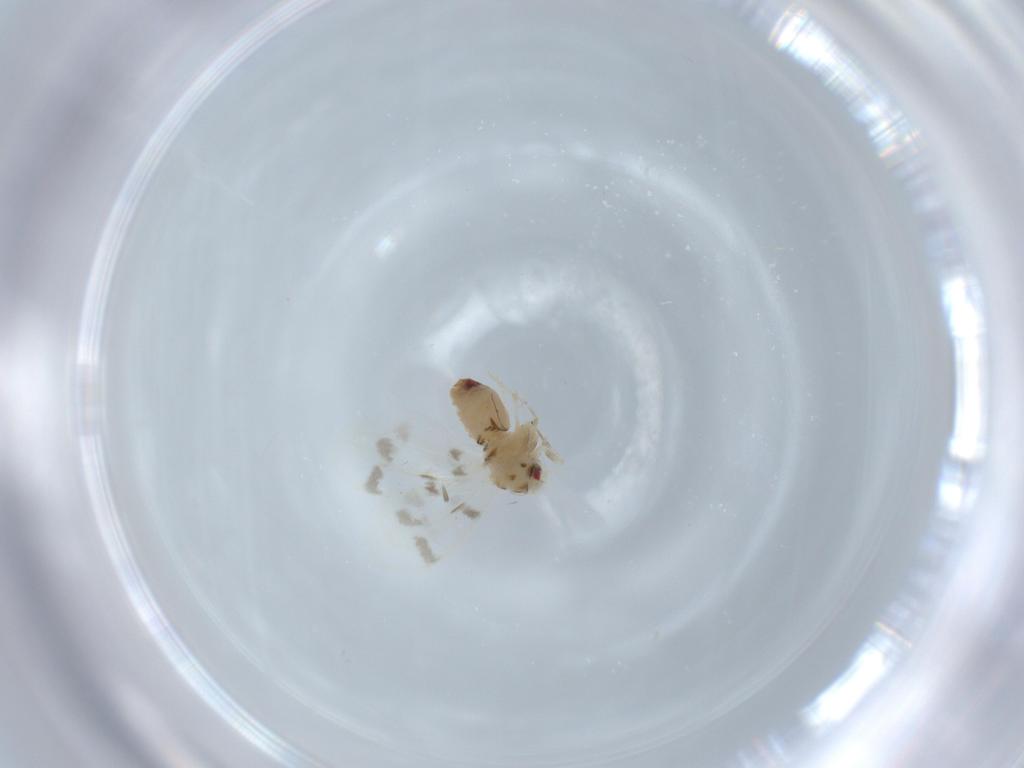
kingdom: Animalia
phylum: Arthropoda
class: Insecta
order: Hemiptera
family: Aleyrodidae
